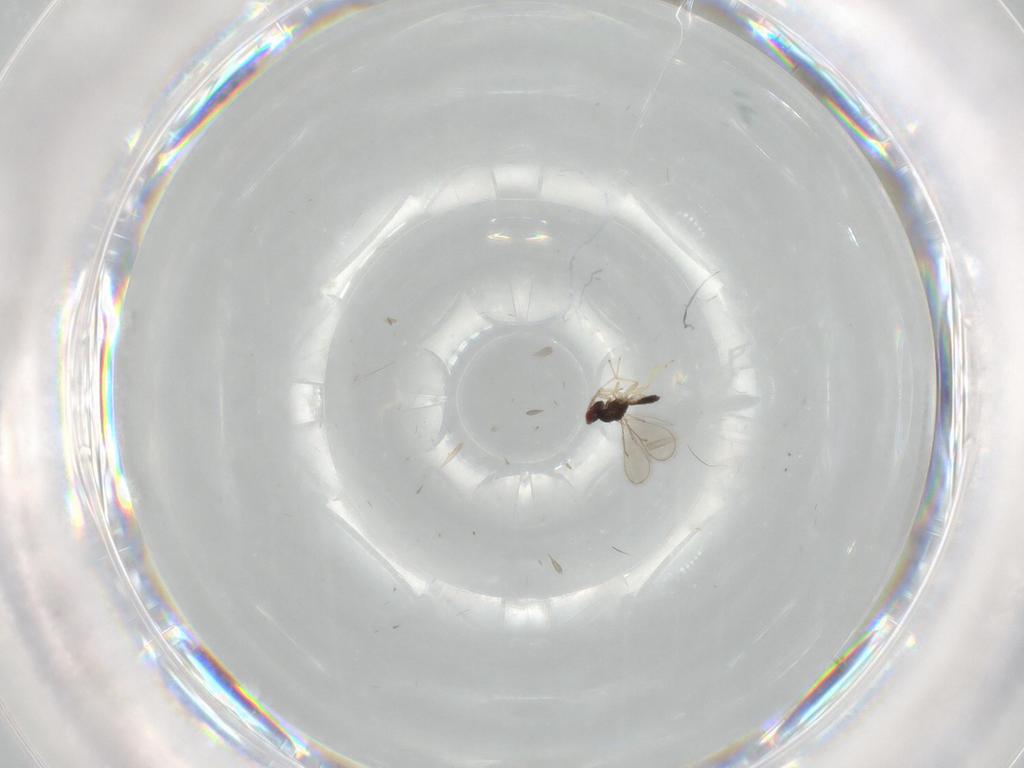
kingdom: Animalia
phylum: Arthropoda
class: Insecta
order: Hymenoptera
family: Eulophidae
